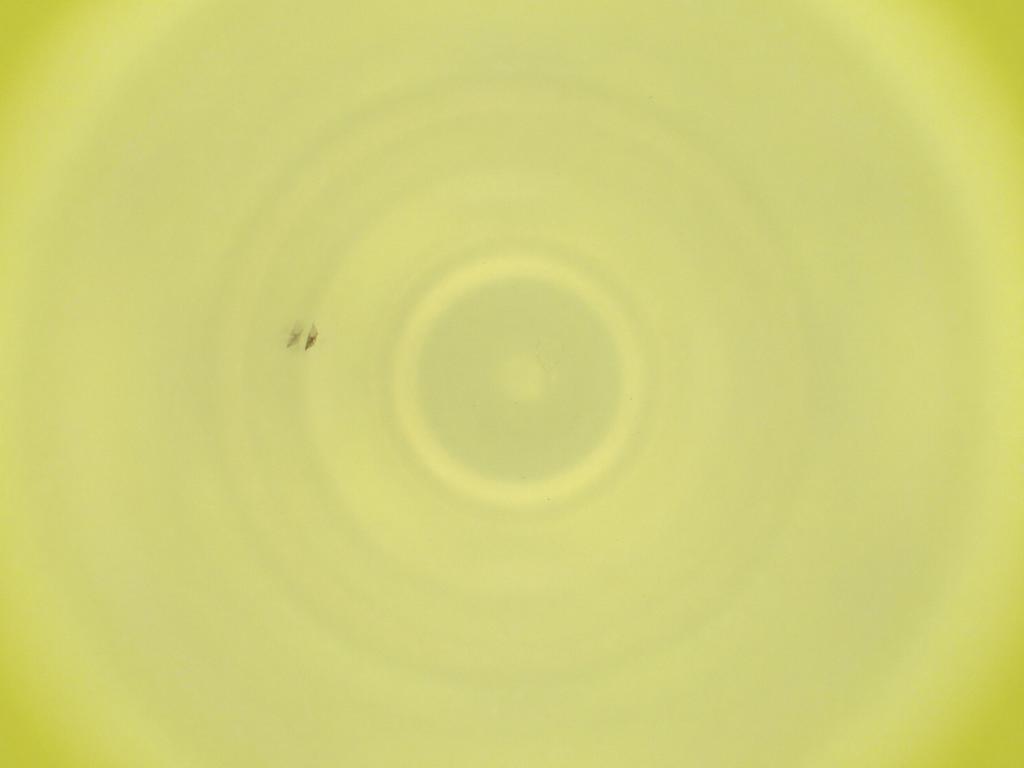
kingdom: Animalia
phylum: Arthropoda
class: Insecta
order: Diptera
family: Cecidomyiidae
